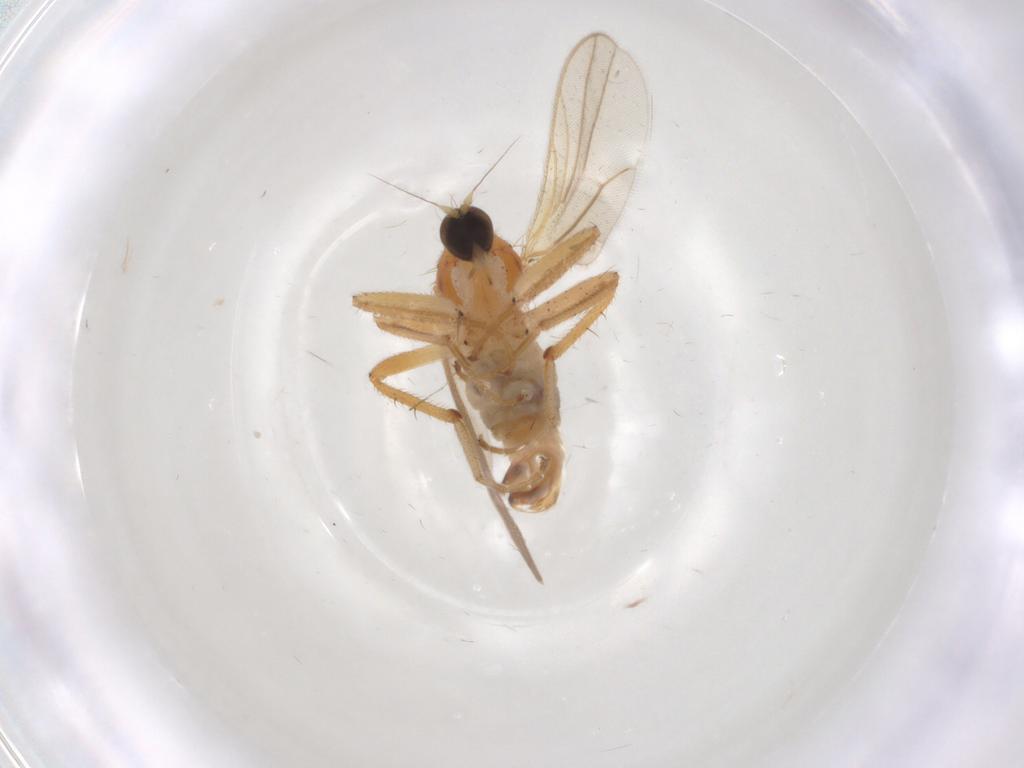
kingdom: Animalia
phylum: Arthropoda
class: Insecta
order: Diptera
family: Hybotidae
